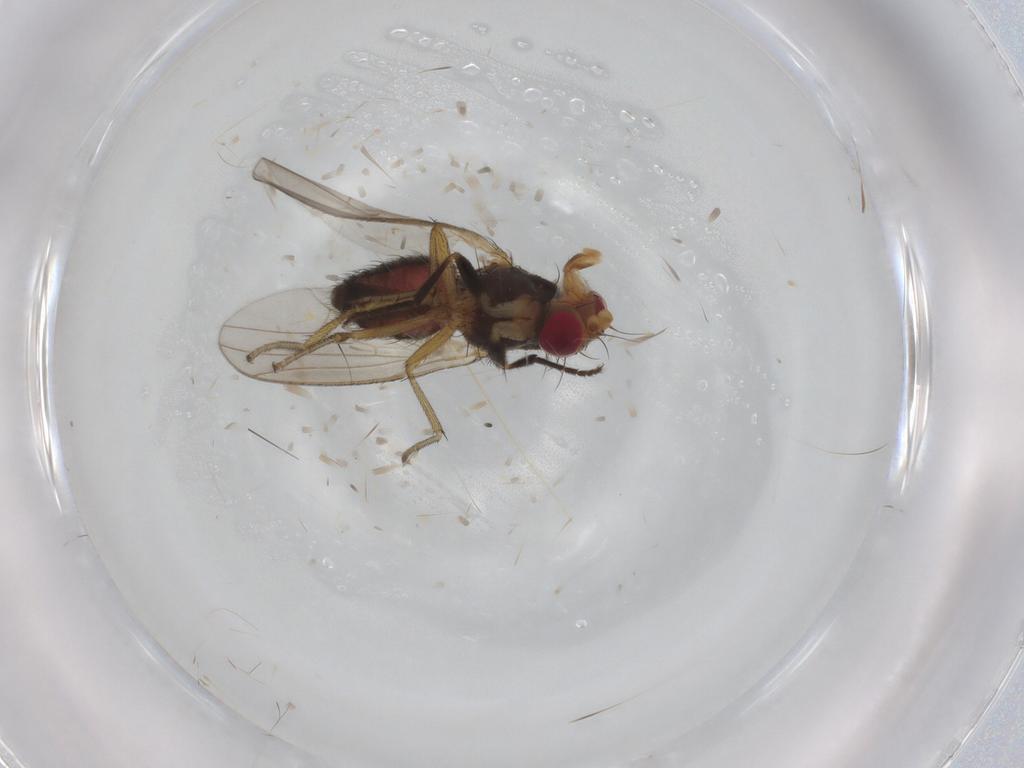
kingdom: Animalia
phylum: Arthropoda
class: Insecta
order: Diptera
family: Heleomyzidae
